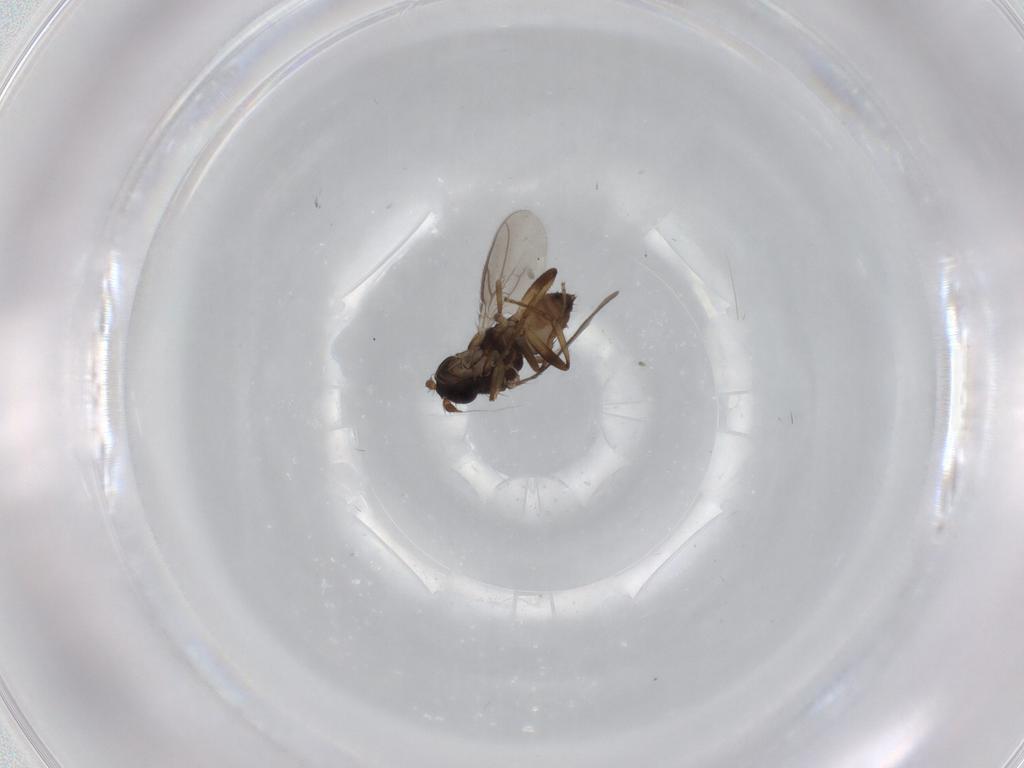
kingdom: Animalia
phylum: Arthropoda
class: Insecta
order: Diptera
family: Sphaeroceridae
